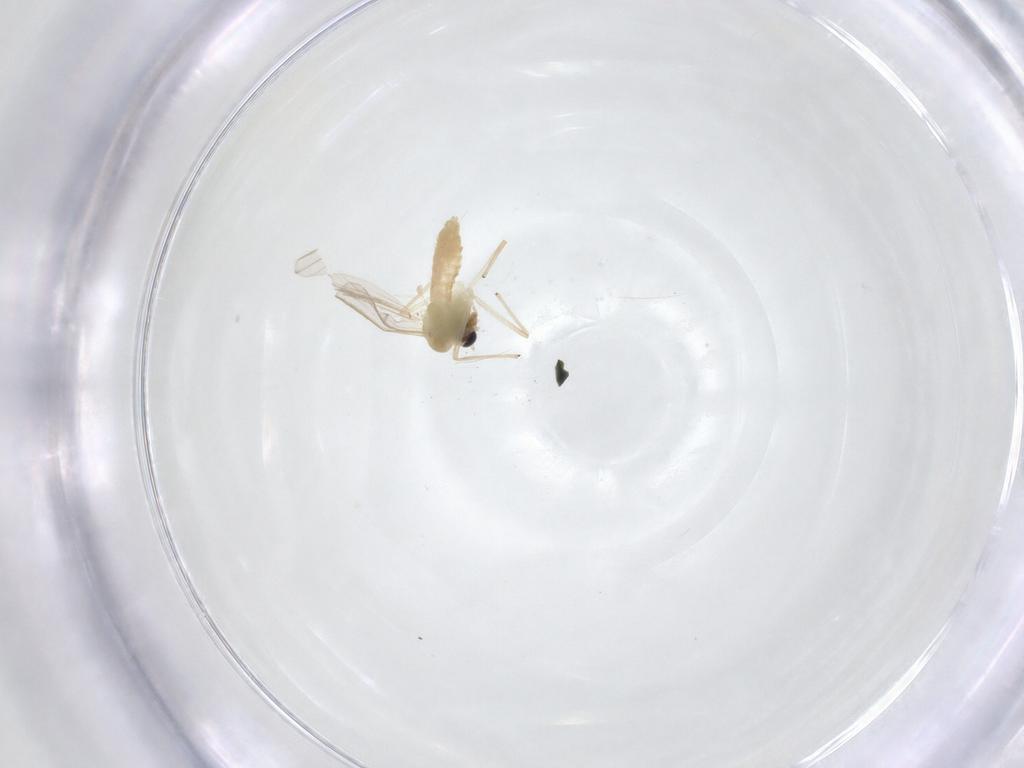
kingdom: Animalia
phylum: Arthropoda
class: Insecta
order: Diptera
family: Chironomidae
